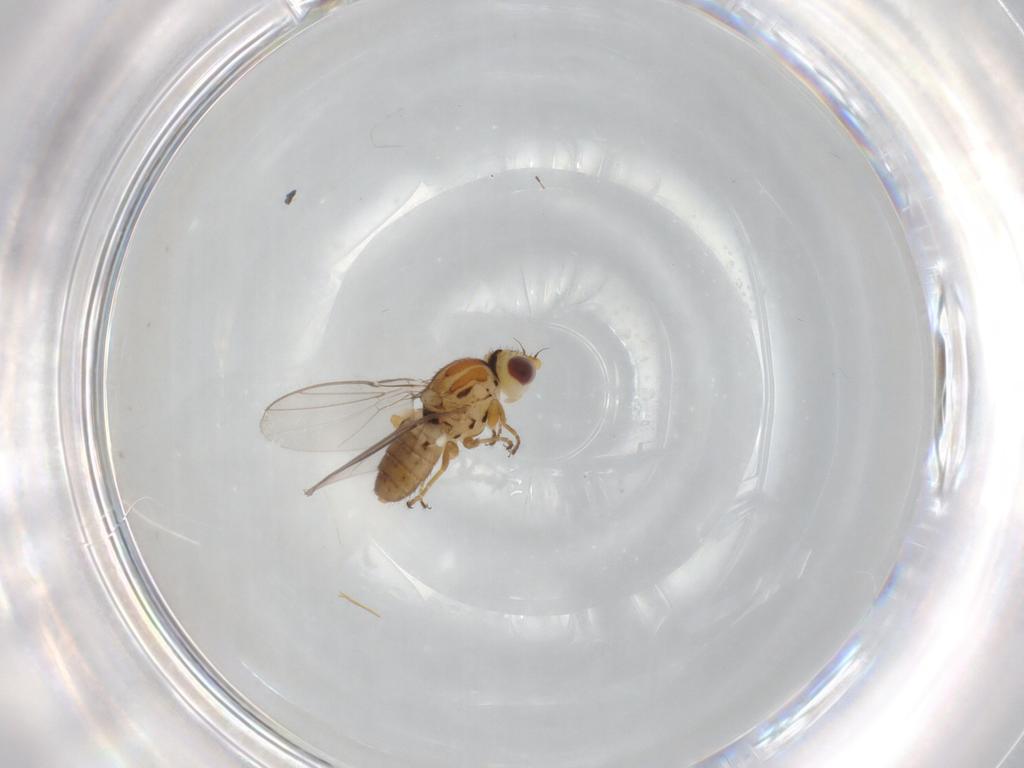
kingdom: Animalia
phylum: Arthropoda
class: Insecta
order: Diptera
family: Chloropidae
